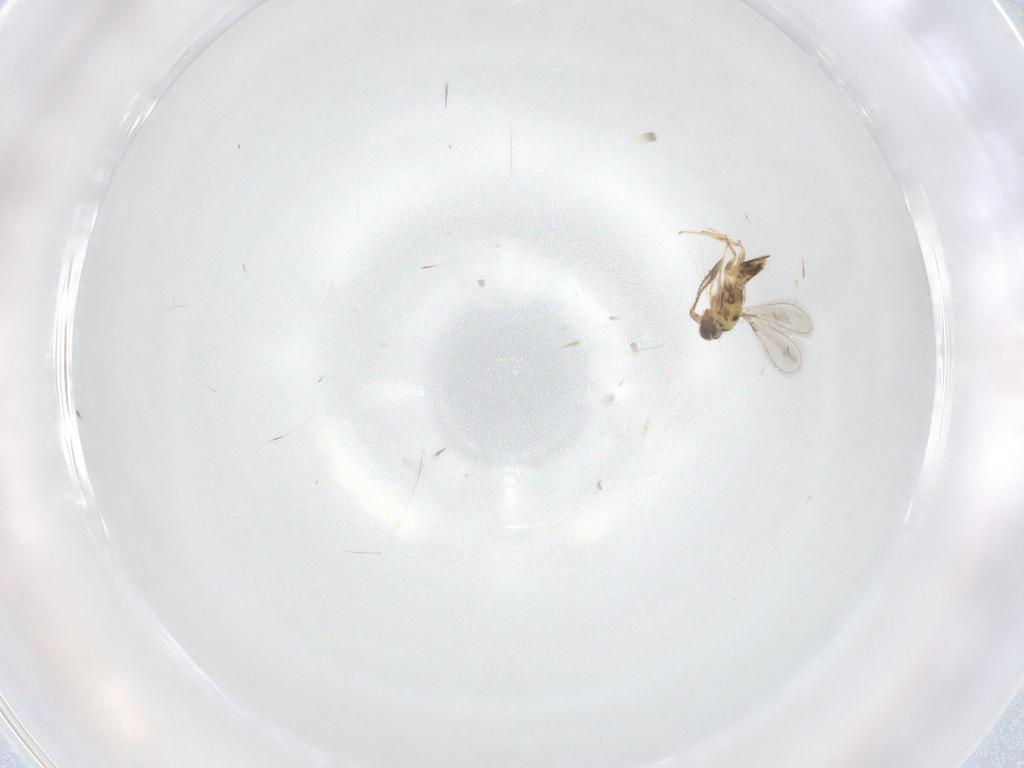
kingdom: Animalia
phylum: Arthropoda
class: Insecta
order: Hymenoptera
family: Mymaridae
